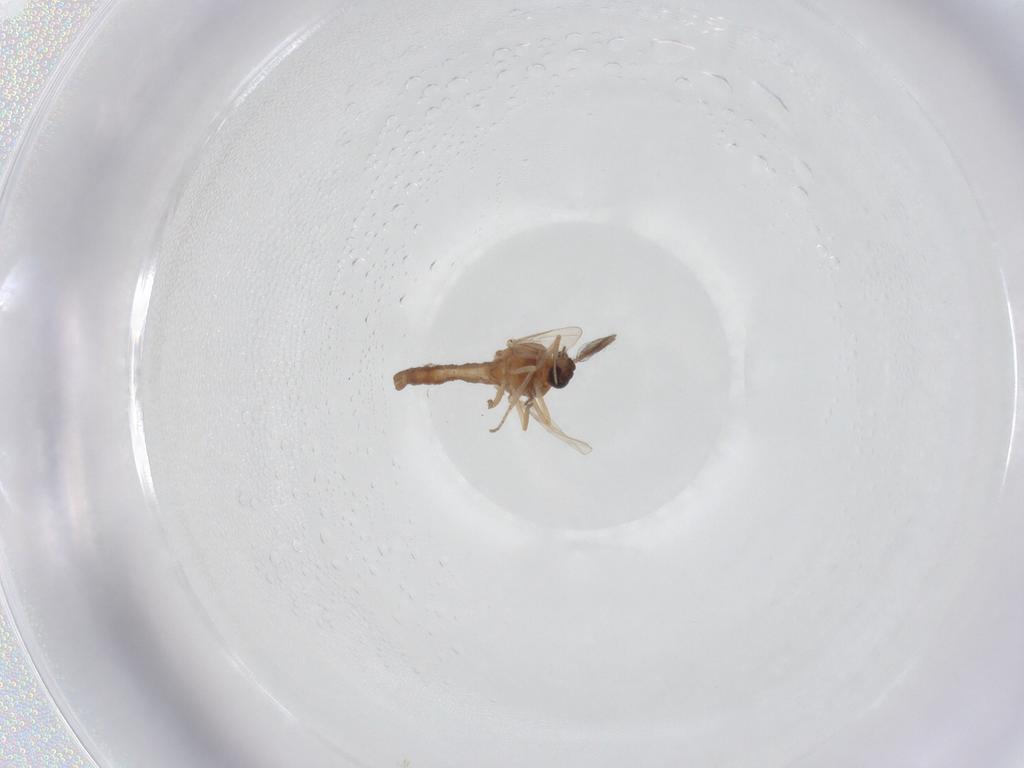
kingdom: Animalia
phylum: Arthropoda
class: Insecta
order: Diptera
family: Ceratopogonidae
